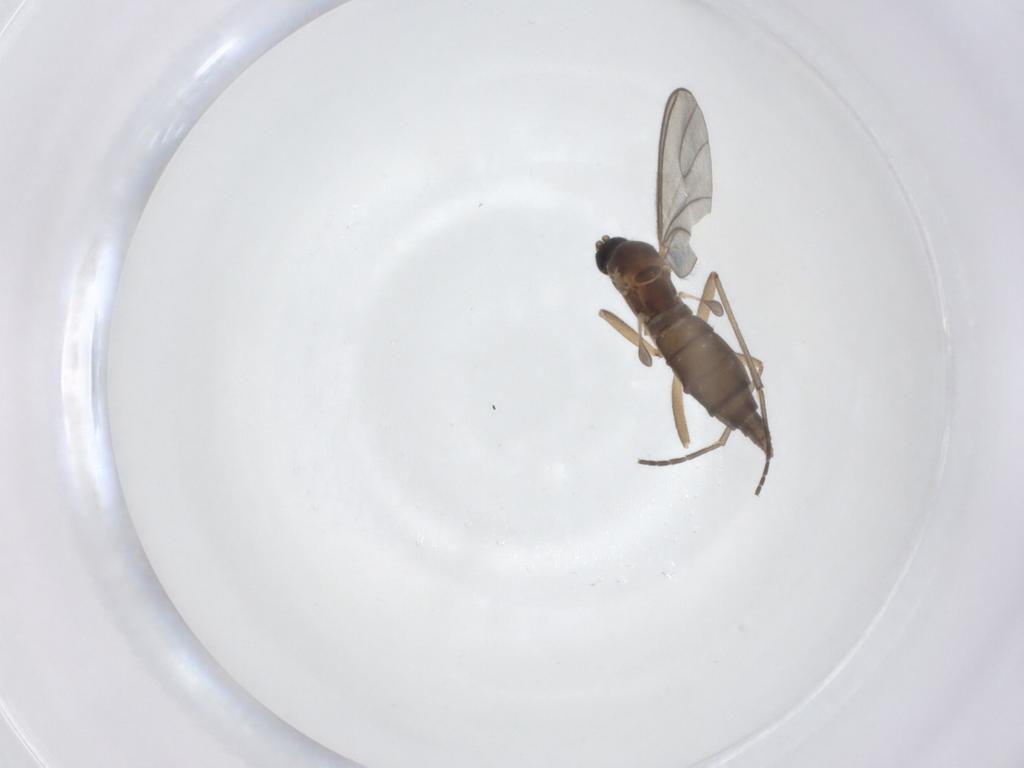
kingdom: Animalia
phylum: Arthropoda
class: Insecta
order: Diptera
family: Sciaridae
